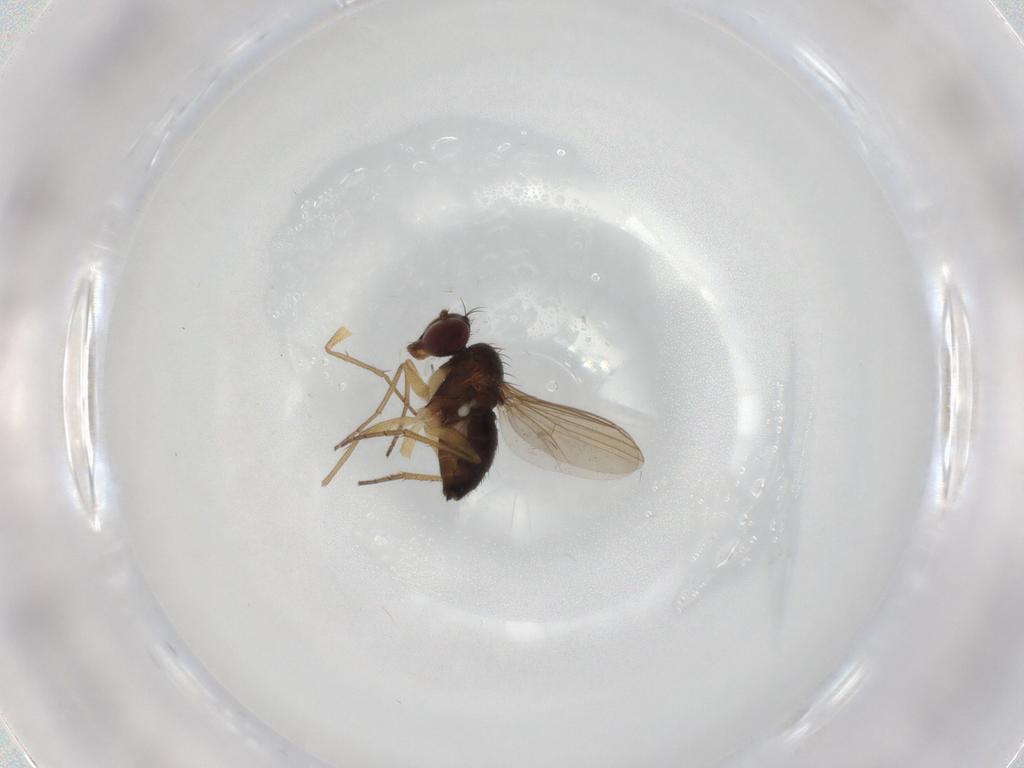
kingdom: Animalia
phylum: Arthropoda
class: Insecta
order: Diptera
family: Dolichopodidae
